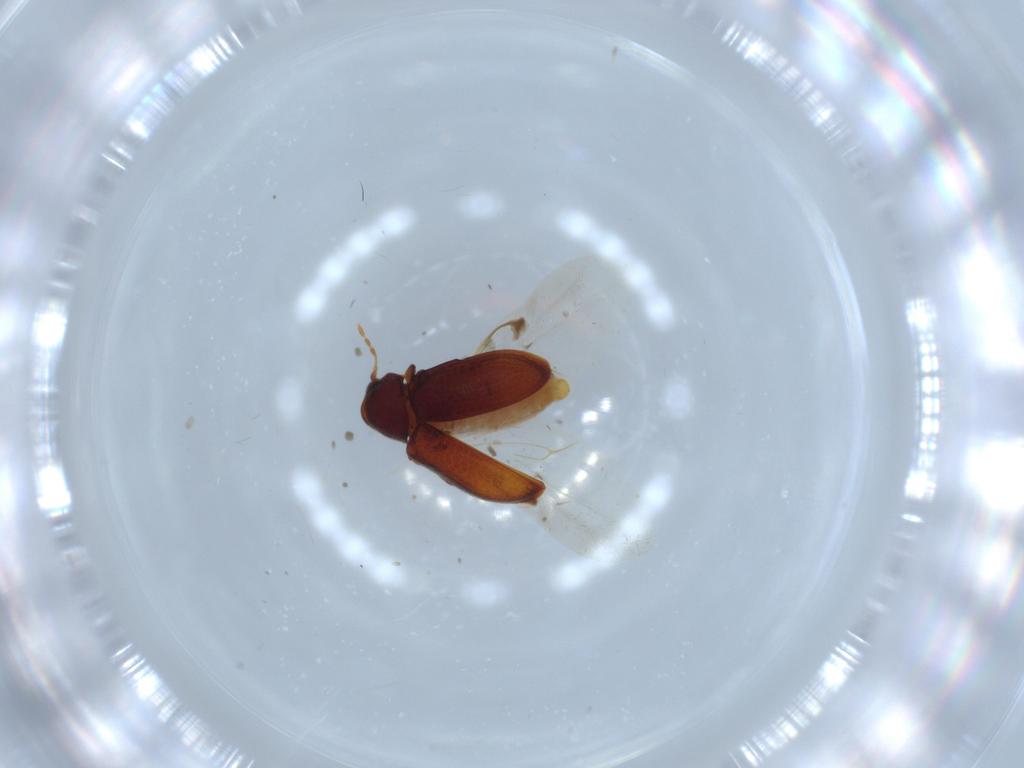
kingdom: Animalia
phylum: Arthropoda
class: Insecta
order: Coleoptera
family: Ptinidae
